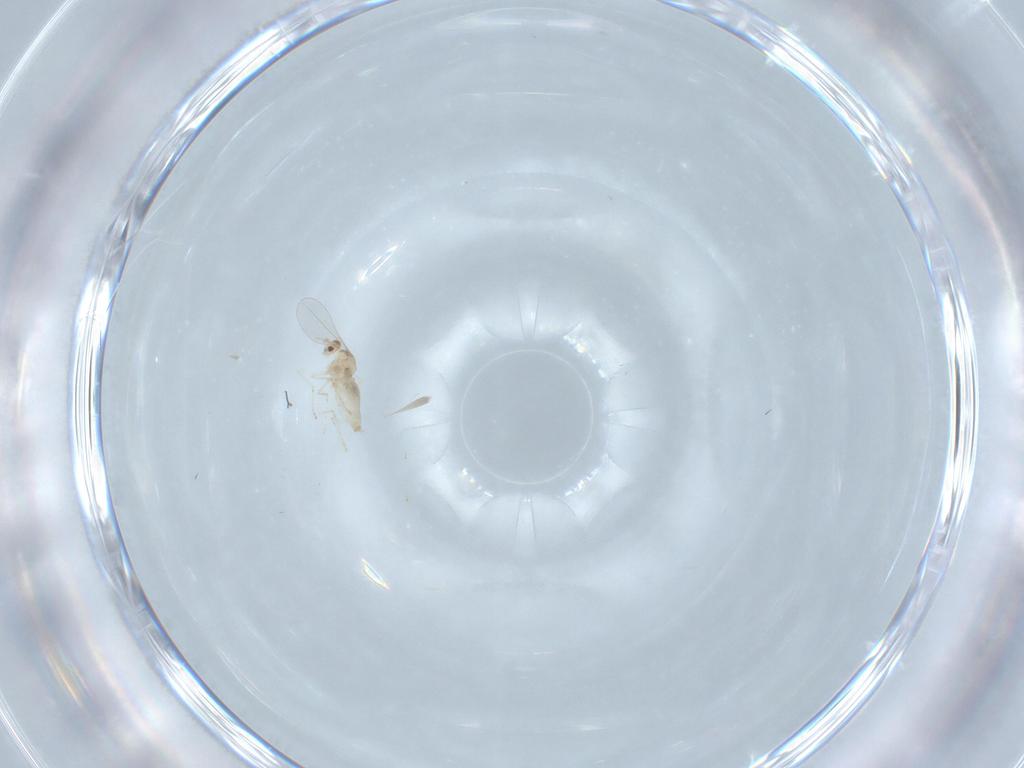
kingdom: Animalia
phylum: Arthropoda
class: Insecta
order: Diptera
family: Cecidomyiidae
